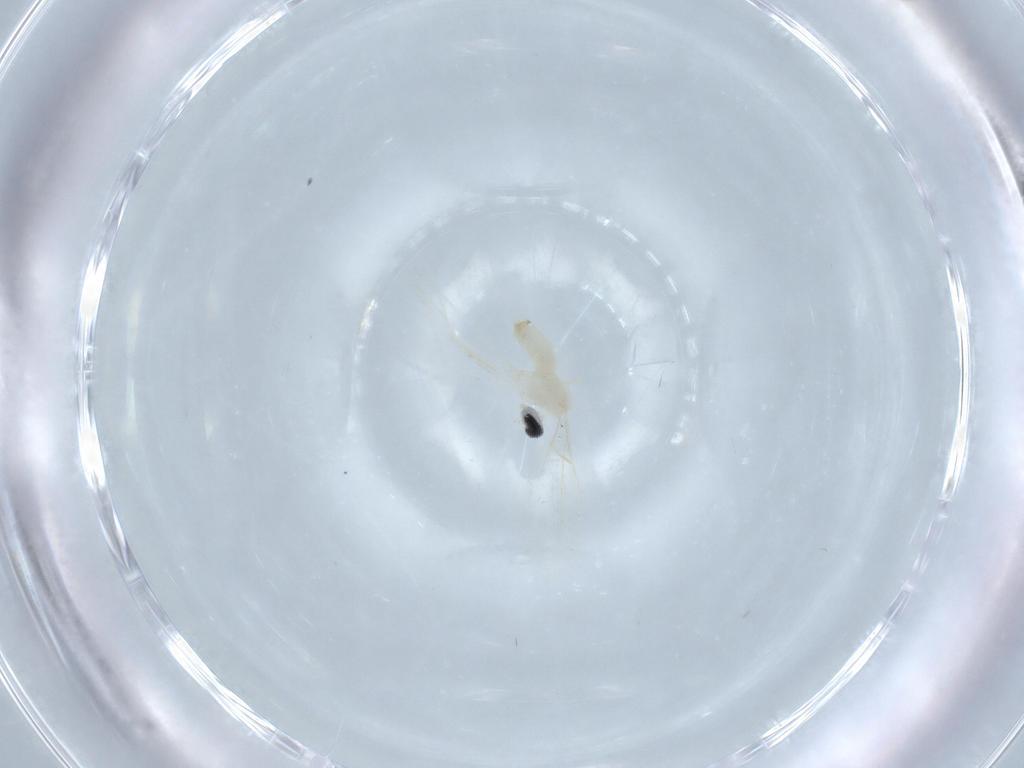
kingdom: Animalia
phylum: Arthropoda
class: Insecta
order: Diptera
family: Cecidomyiidae
